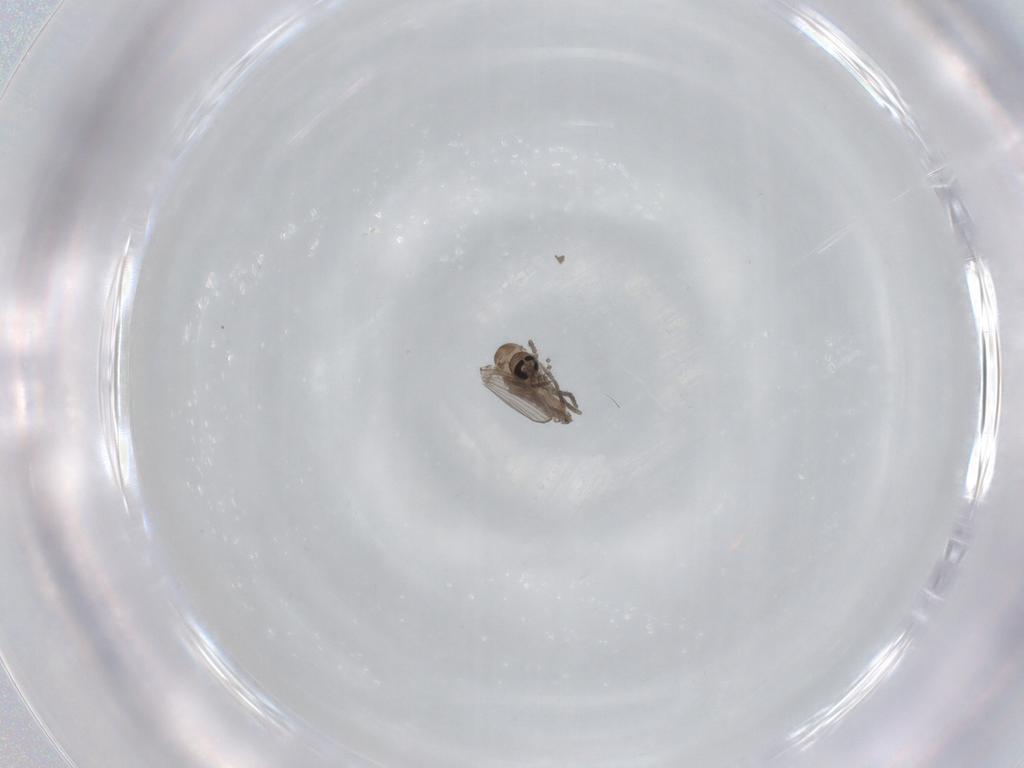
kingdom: Animalia
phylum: Arthropoda
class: Insecta
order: Diptera
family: Psychodidae
